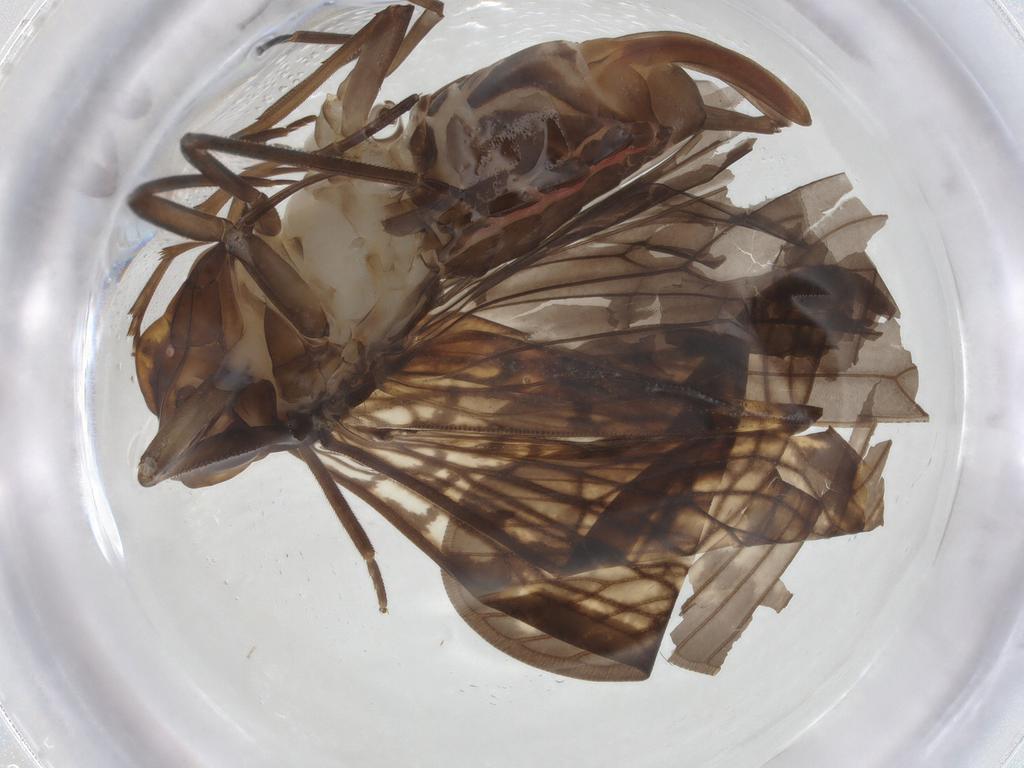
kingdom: Animalia
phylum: Arthropoda
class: Insecta
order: Hemiptera
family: Cixiidae
